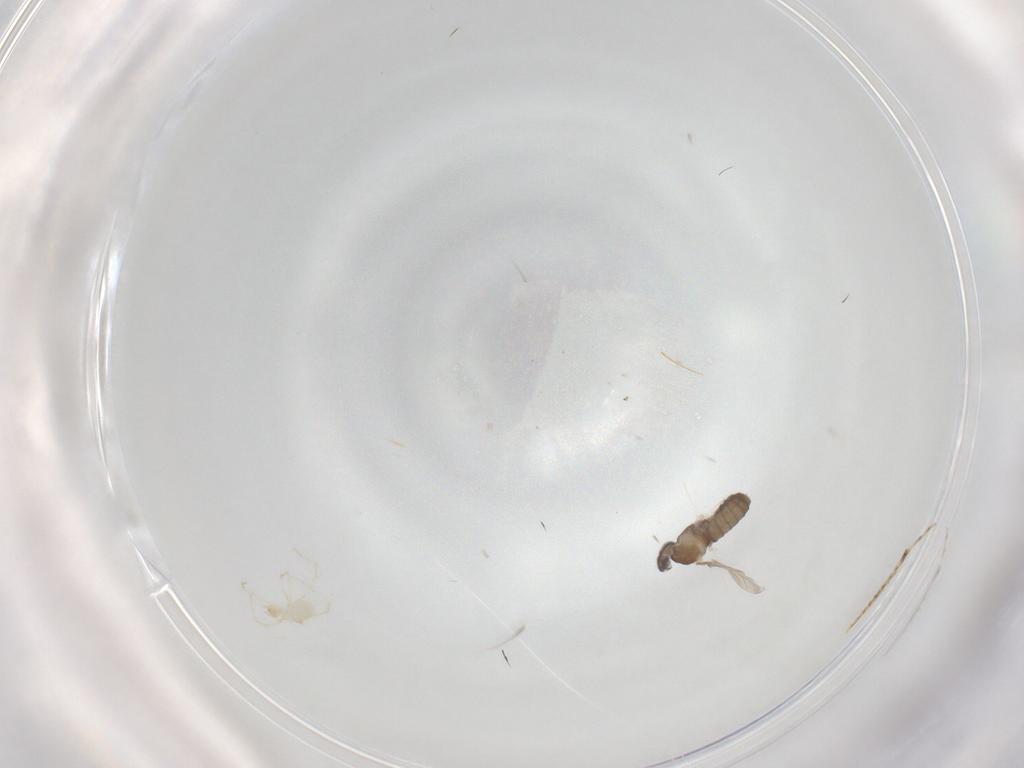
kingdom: Animalia
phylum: Arthropoda
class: Insecta
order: Diptera
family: Cecidomyiidae
